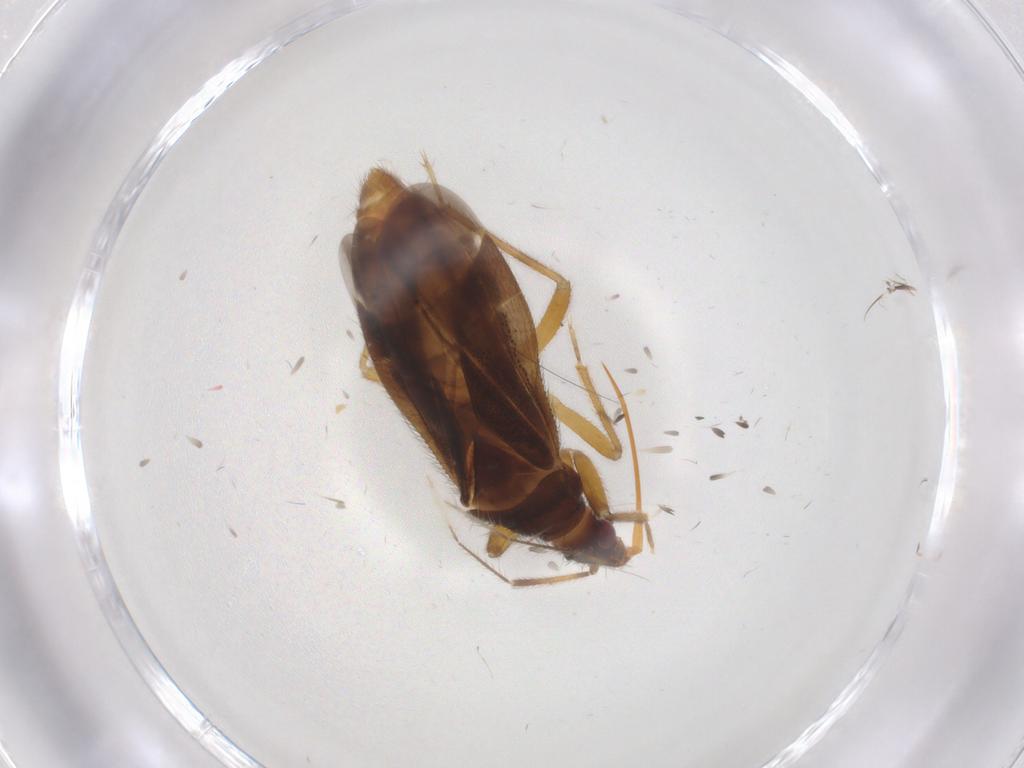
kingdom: Animalia
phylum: Arthropoda
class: Insecta
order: Hemiptera
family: Anthocoridae
